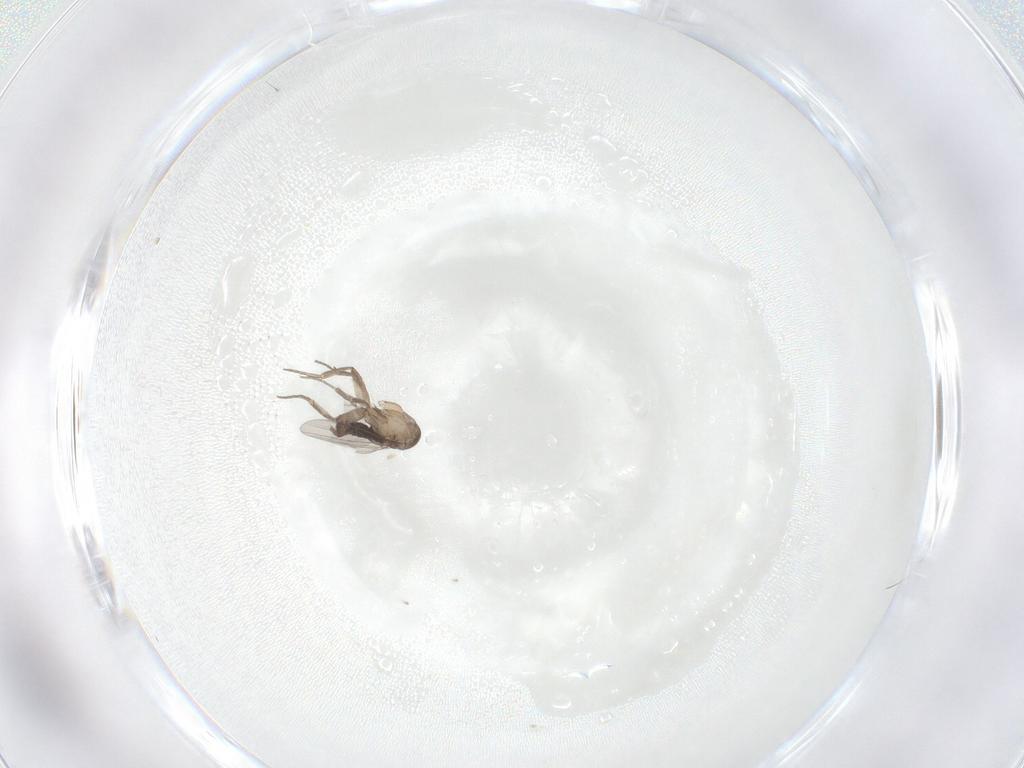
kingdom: Animalia
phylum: Arthropoda
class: Insecta
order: Diptera
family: Phoridae
